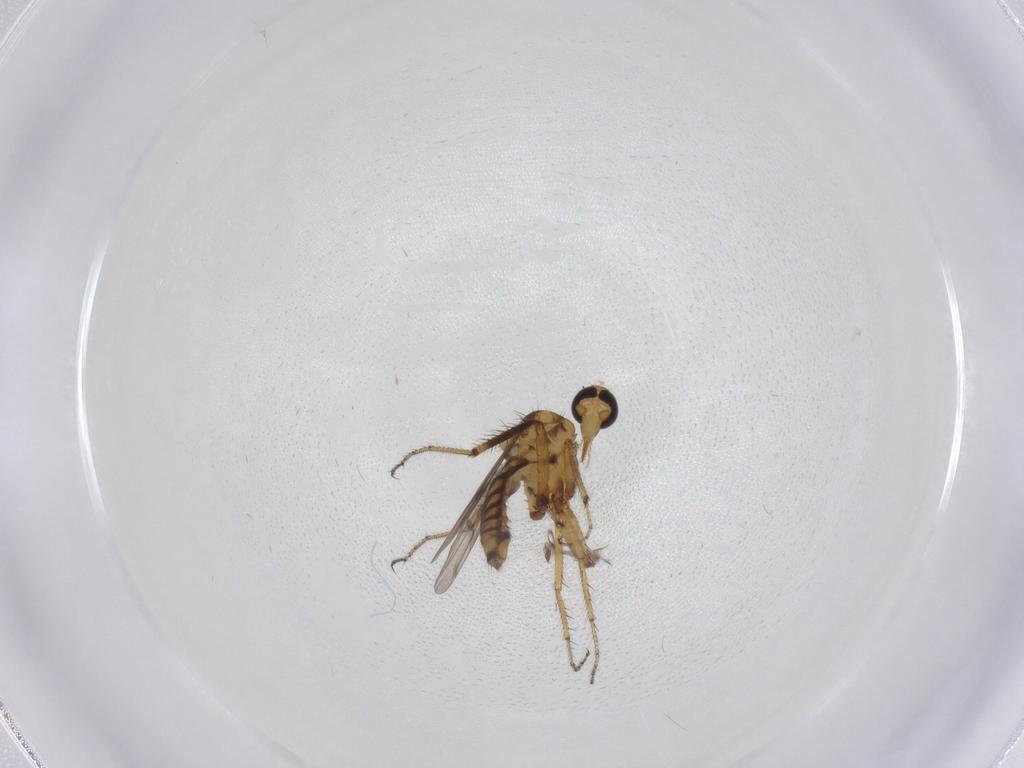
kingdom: Animalia
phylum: Arthropoda
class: Insecta
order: Diptera
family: Ceratopogonidae
